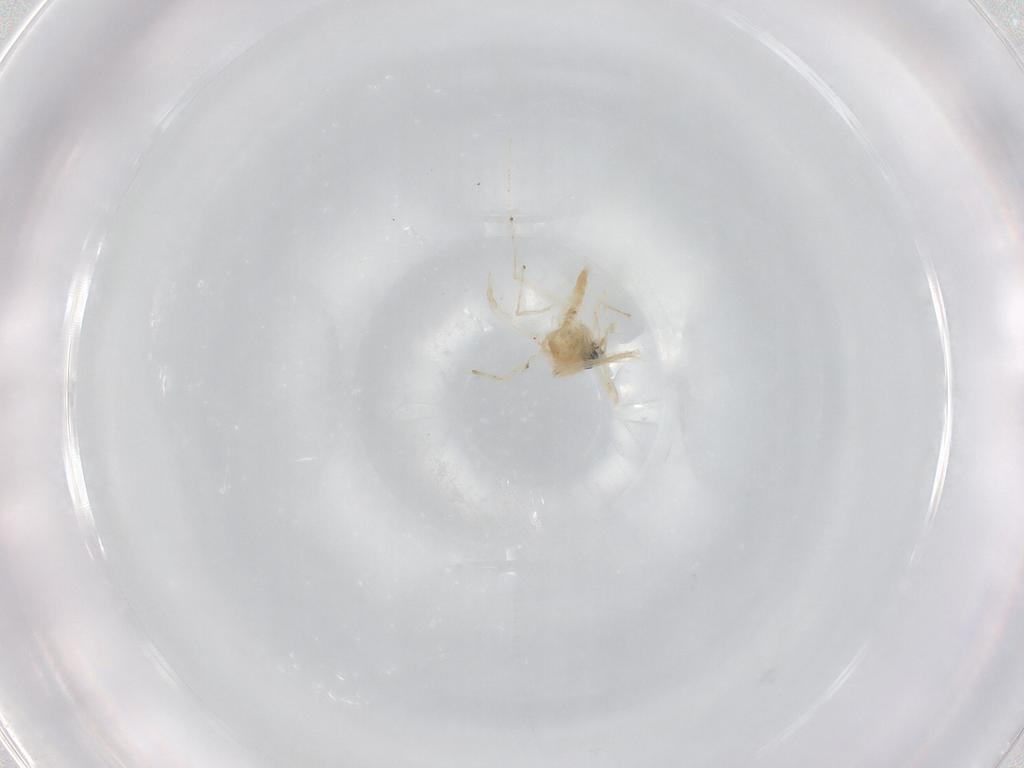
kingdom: Animalia
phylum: Arthropoda
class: Insecta
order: Diptera
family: Chironomidae
